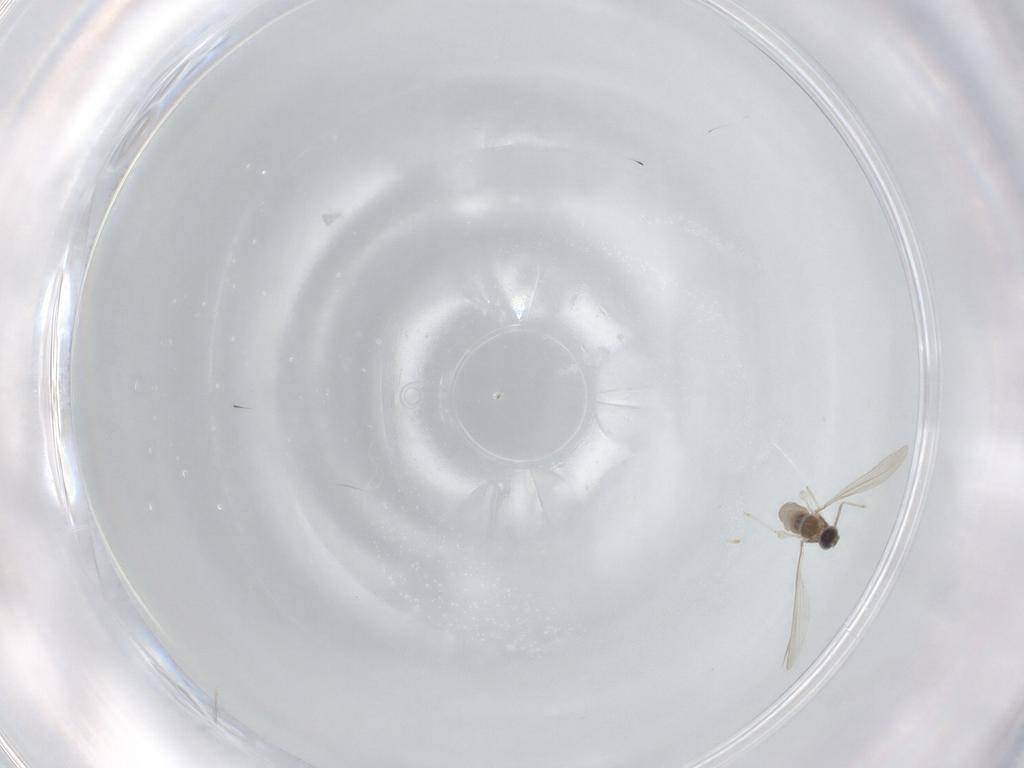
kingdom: Animalia
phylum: Arthropoda
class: Insecta
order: Diptera
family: Cecidomyiidae
